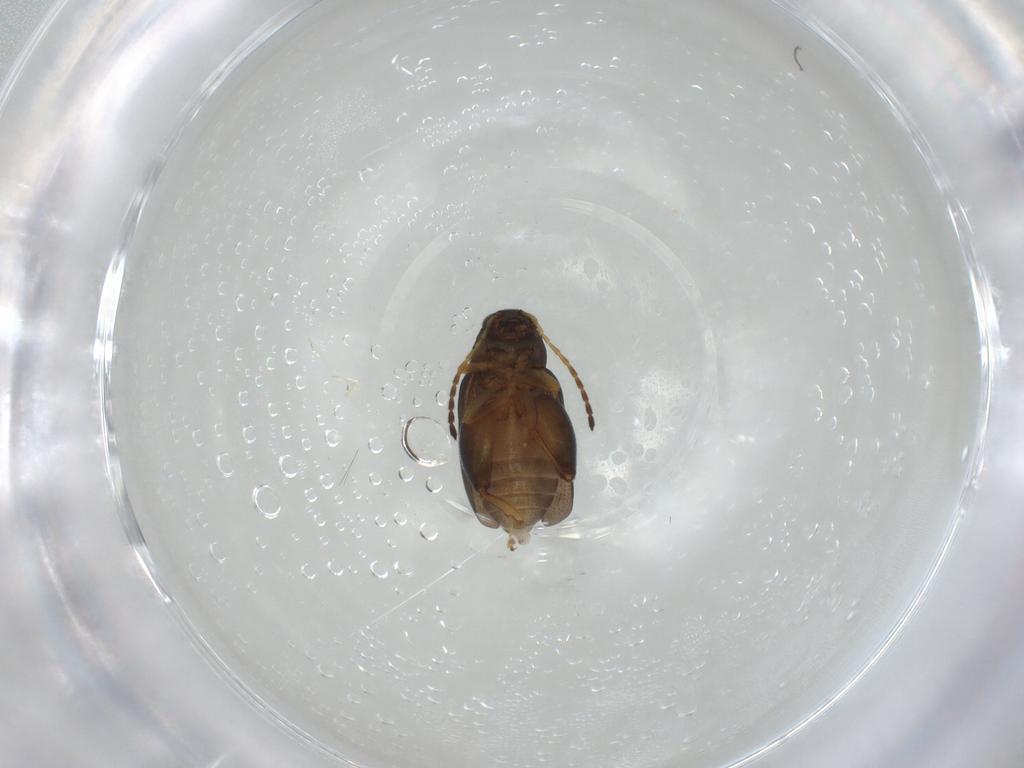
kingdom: Animalia
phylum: Arthropoda
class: Insecta
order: Coleoptera
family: Chrysomelidae
